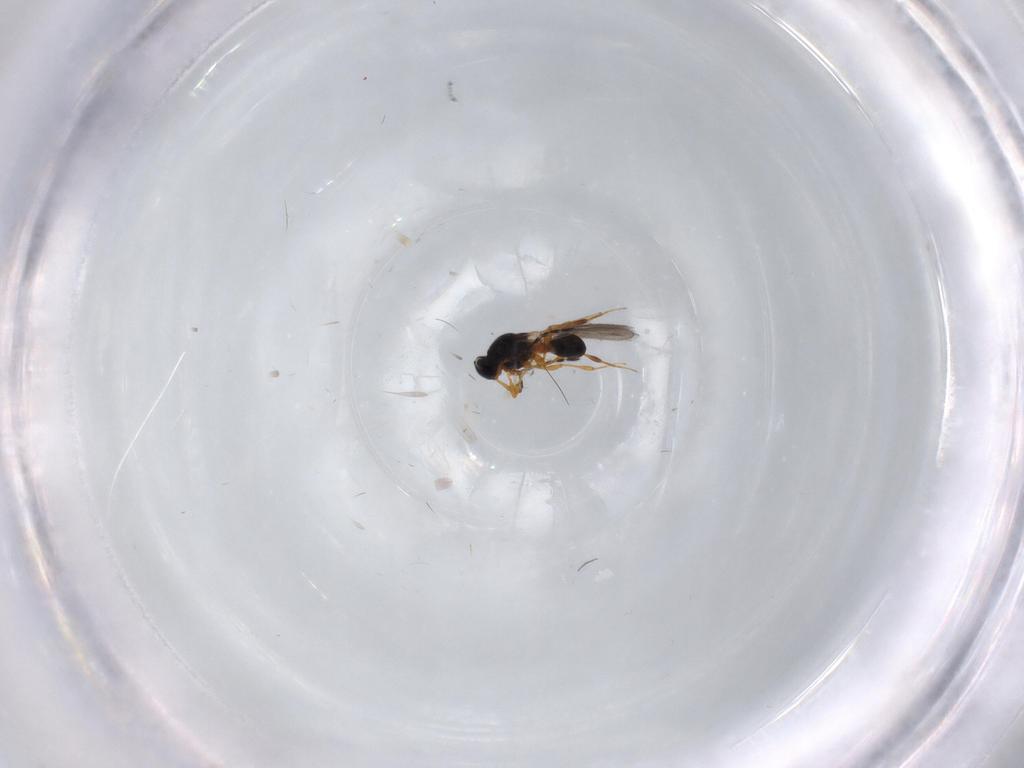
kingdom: Animalia
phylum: Arthropoda
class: Insecta
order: Hymenoptera
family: Platygastridae
